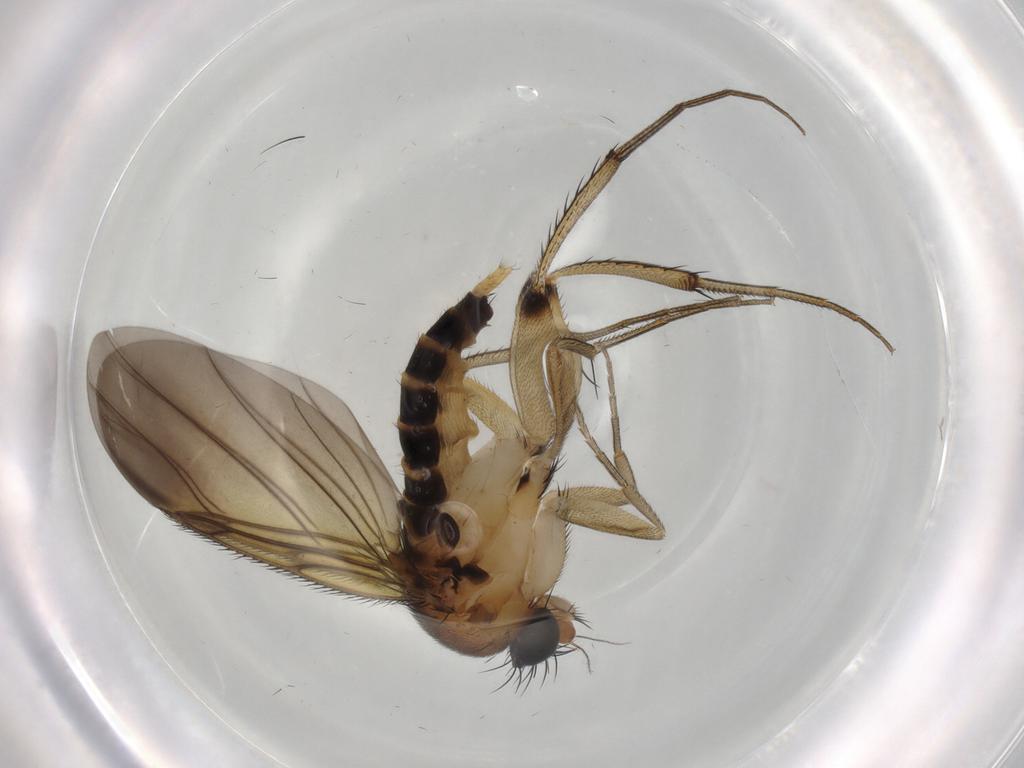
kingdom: Animalia
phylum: Arthropoda
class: Insecta
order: Diptera
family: Phoridae
